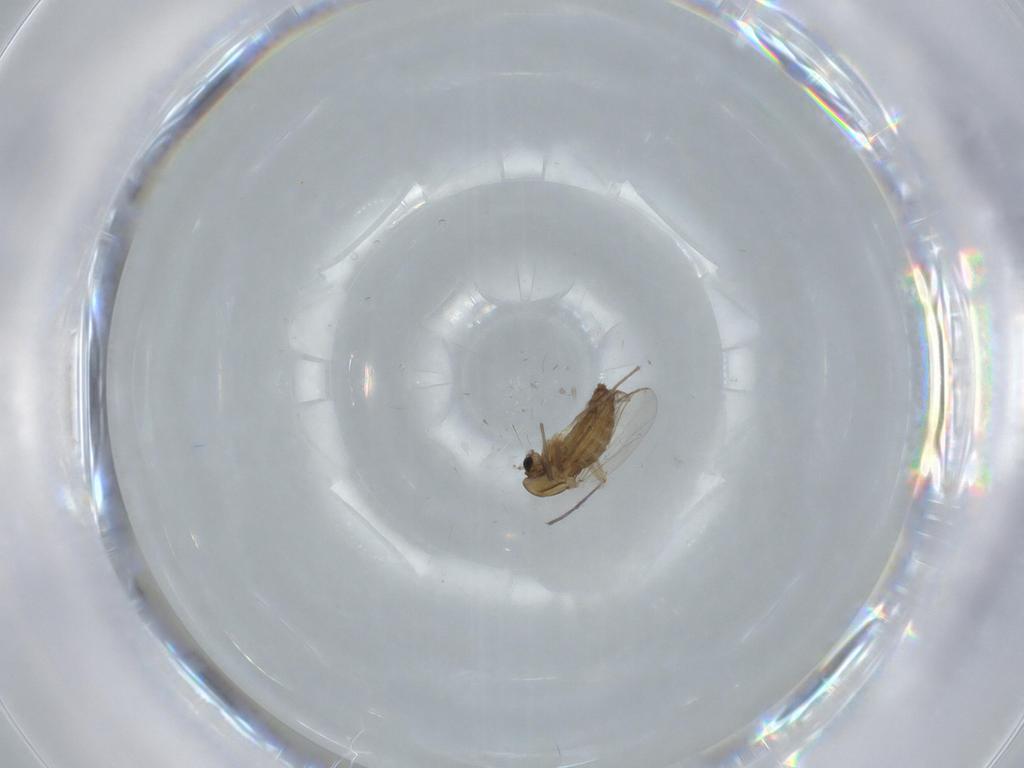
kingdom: Animalia
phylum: Arthropoda
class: Insecta
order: Diptera
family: Chironomidae
